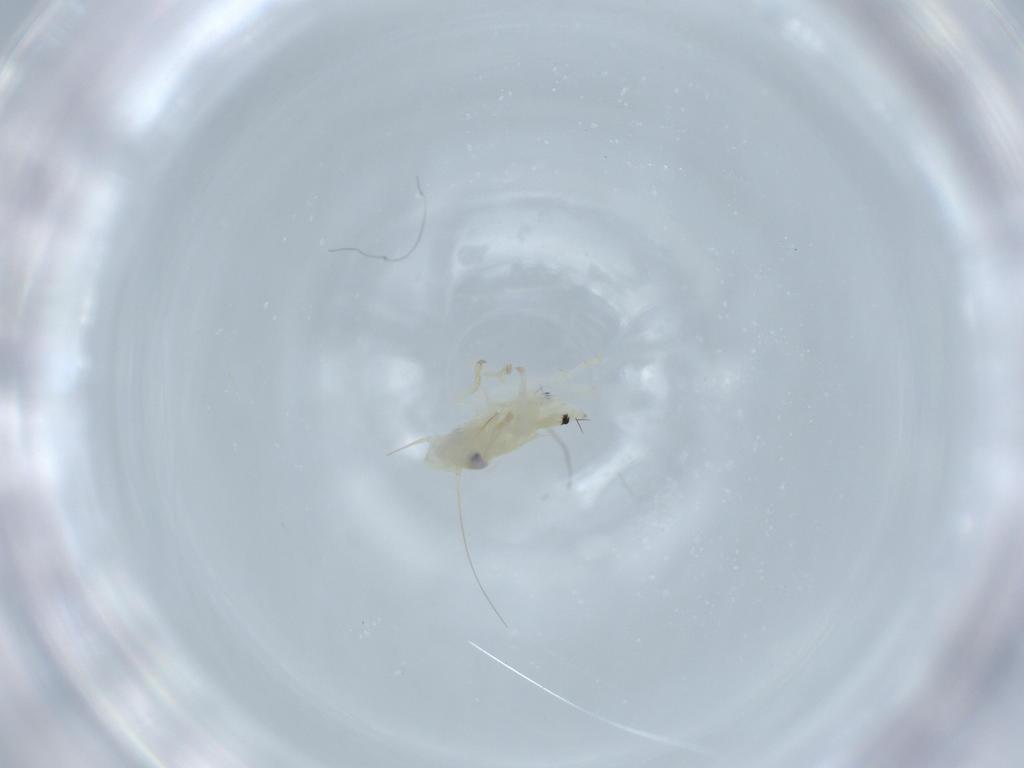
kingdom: Animalia
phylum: Arthropoda
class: Insecta
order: Hemiptera
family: Cicadellidae
